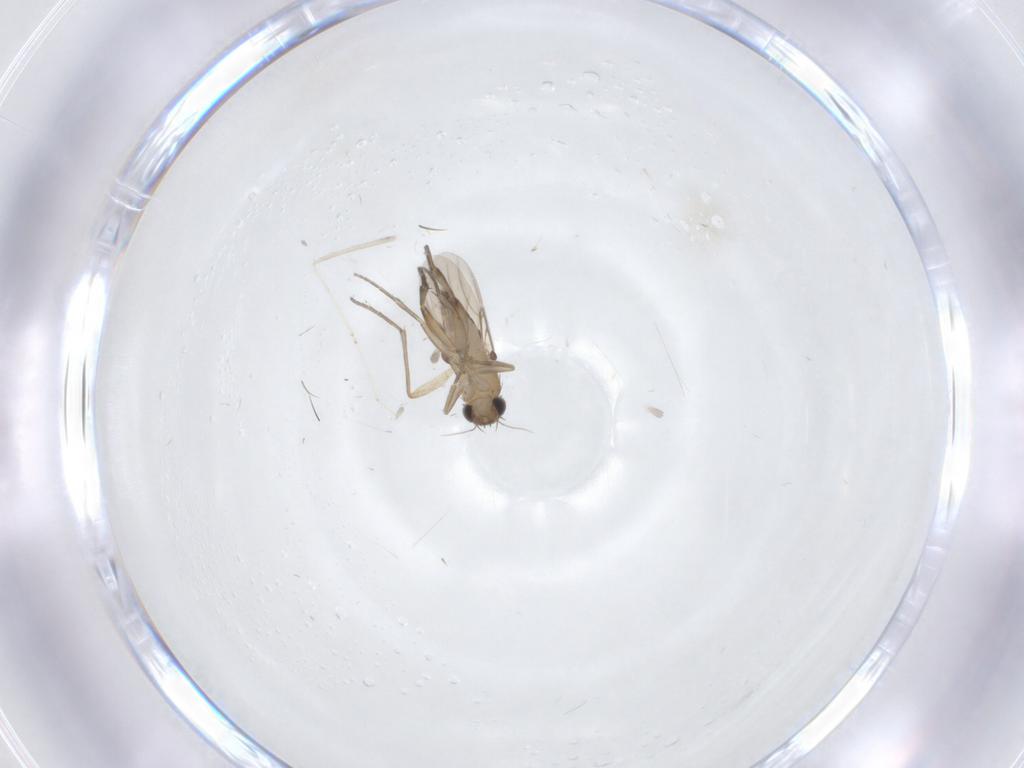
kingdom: Animalia
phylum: Arthropoda
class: Insecta
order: Diptera
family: Phoridae
